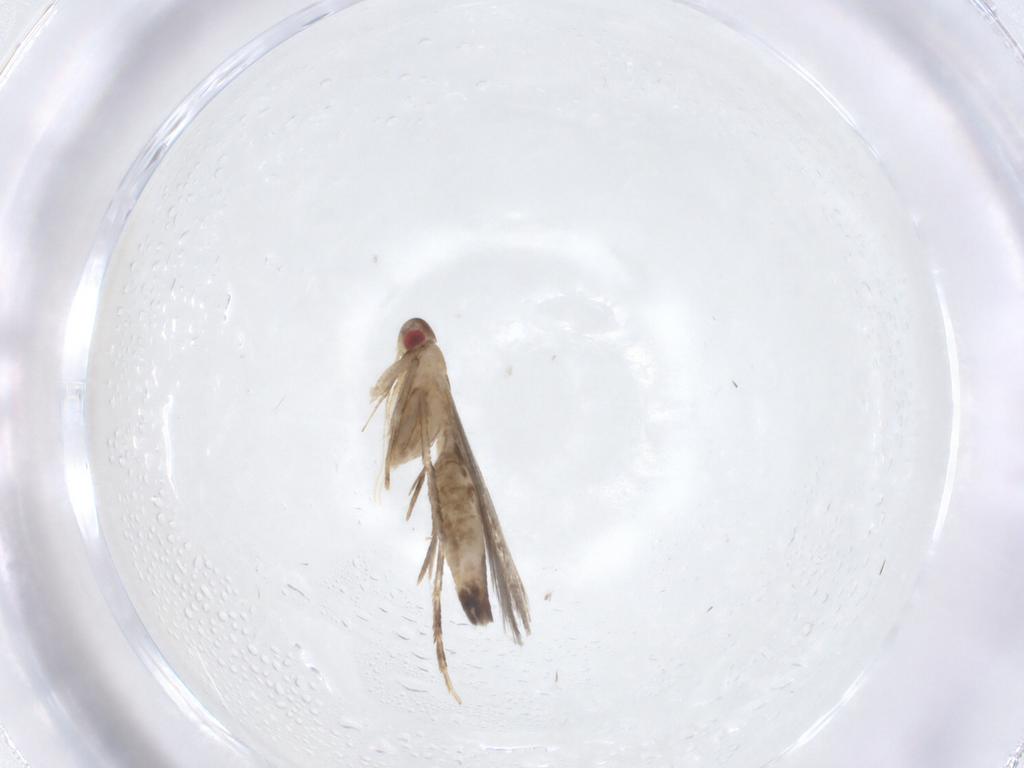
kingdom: Animalia
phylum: Arthropoda
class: Insecta
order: Lepidoptera
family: Cosmopterigidae
